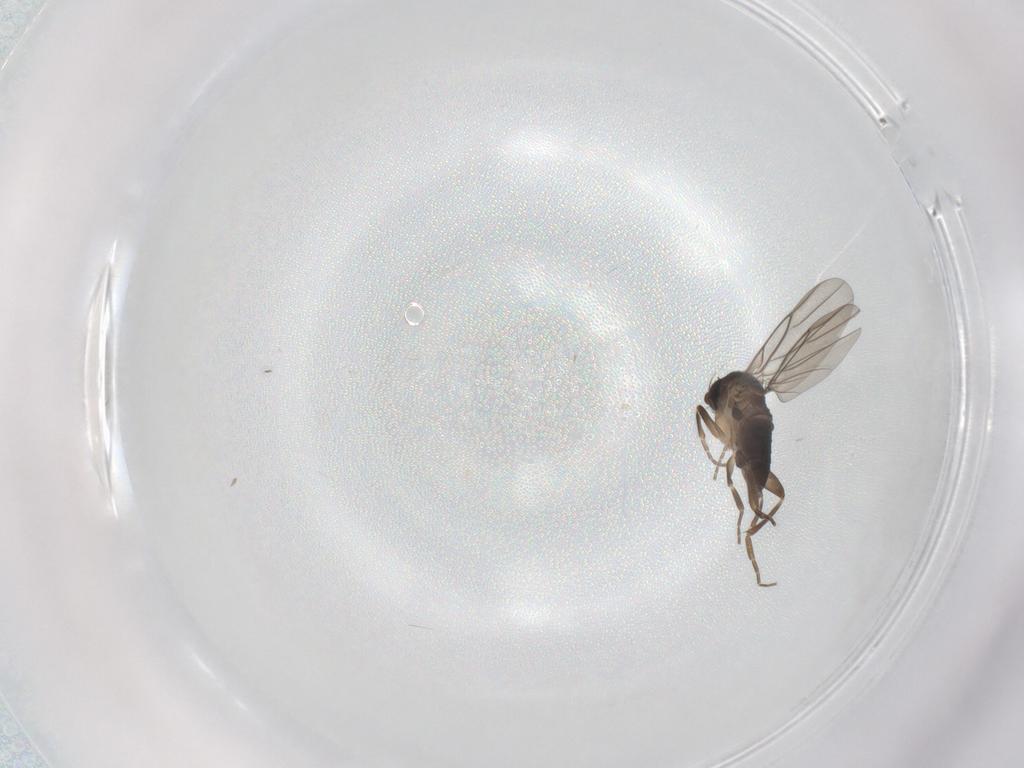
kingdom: Animalia
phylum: Arthropoda
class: Insecta
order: Diptera
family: Phoridae
